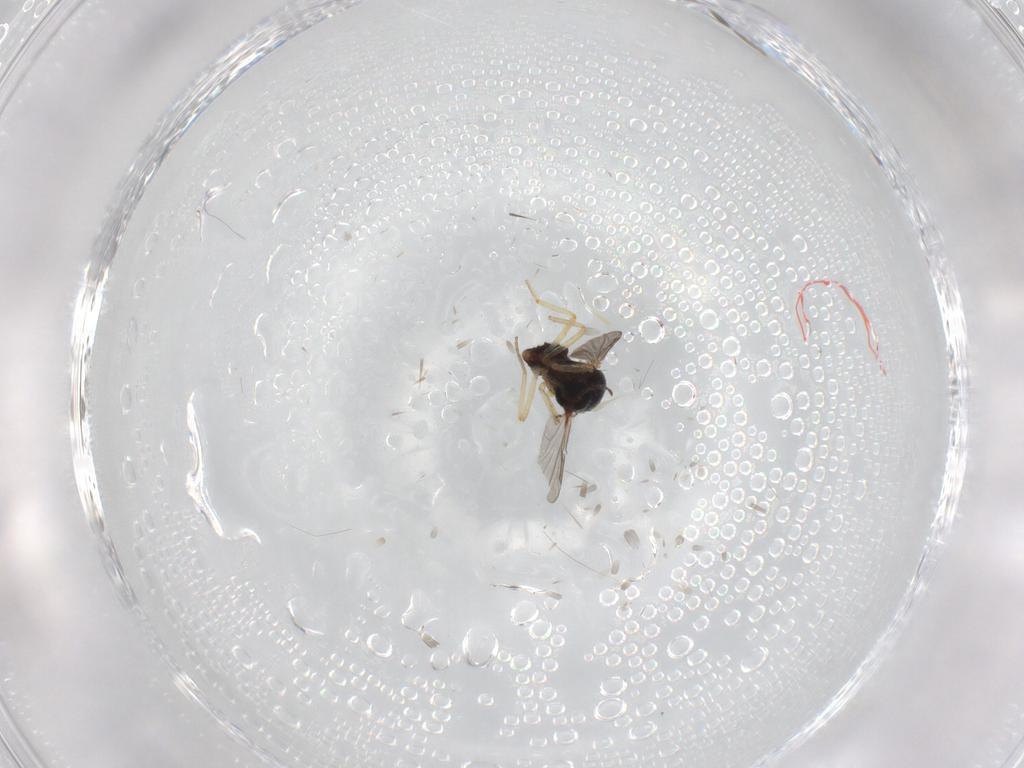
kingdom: Animalia
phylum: Arthropoda
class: Insecta
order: Diptera
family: Ceratopogonidae
